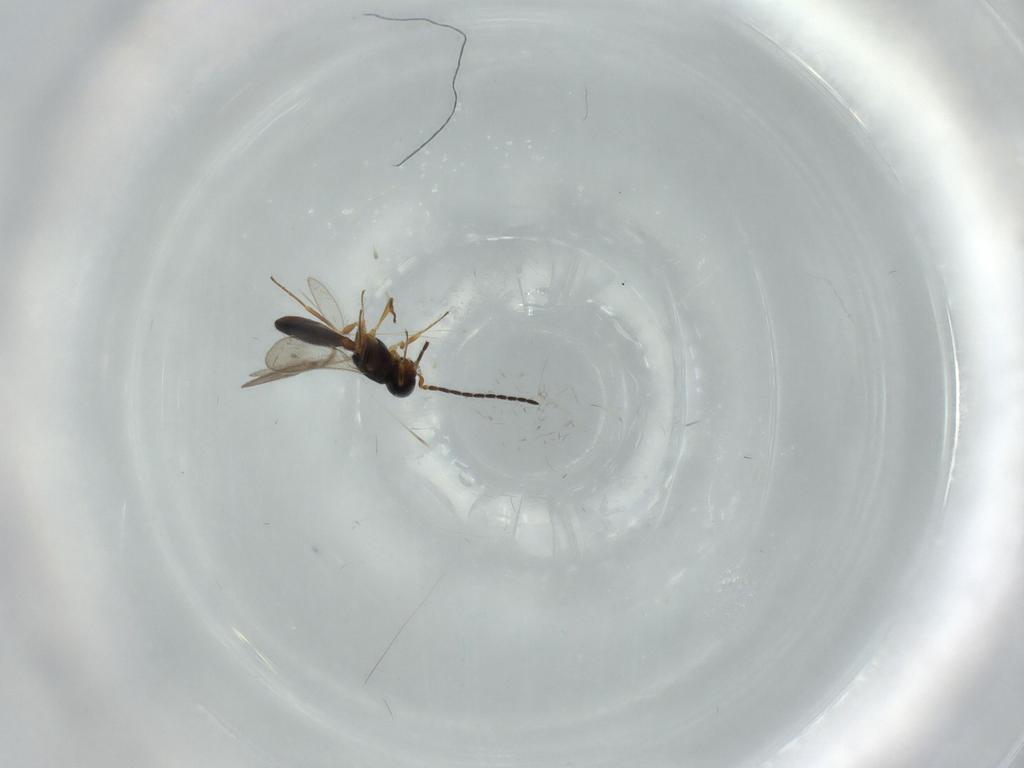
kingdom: Animalia
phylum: Arthropoda
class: Insecta
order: Hymenoptera
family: Scelionidae
